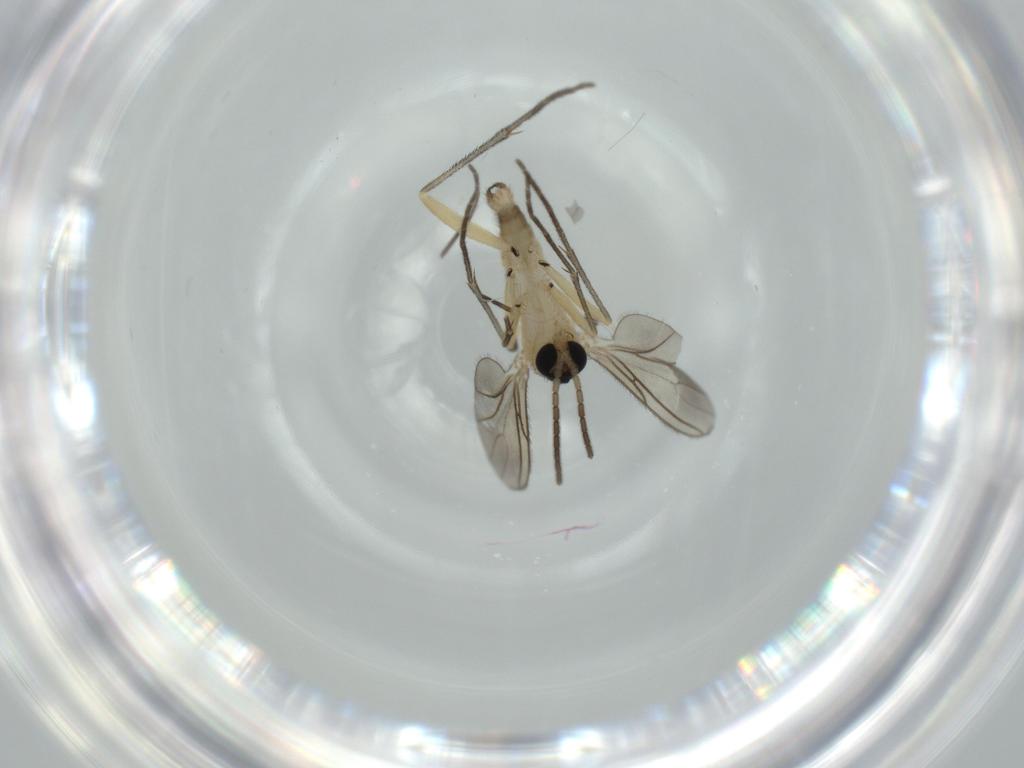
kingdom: Animalia
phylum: Arthropoda
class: Insecta
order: Diptera
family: Sciaridae
